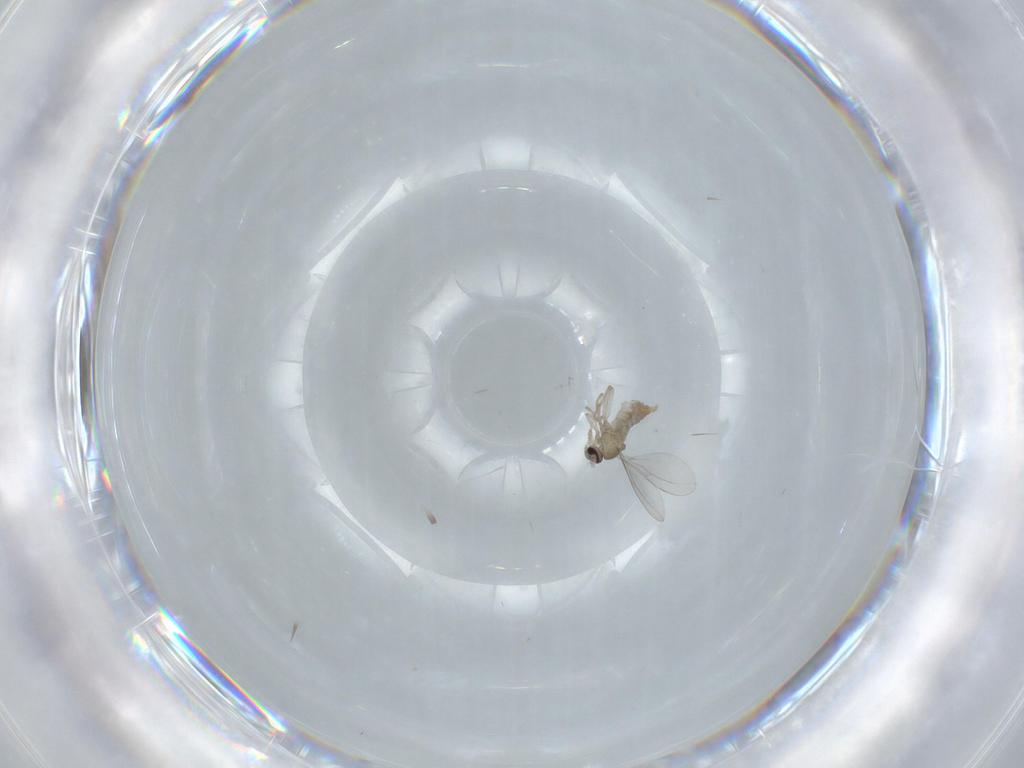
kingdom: Animalia
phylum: Arthropoda
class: Insecta
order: Diptera
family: Cecidomyiidae
